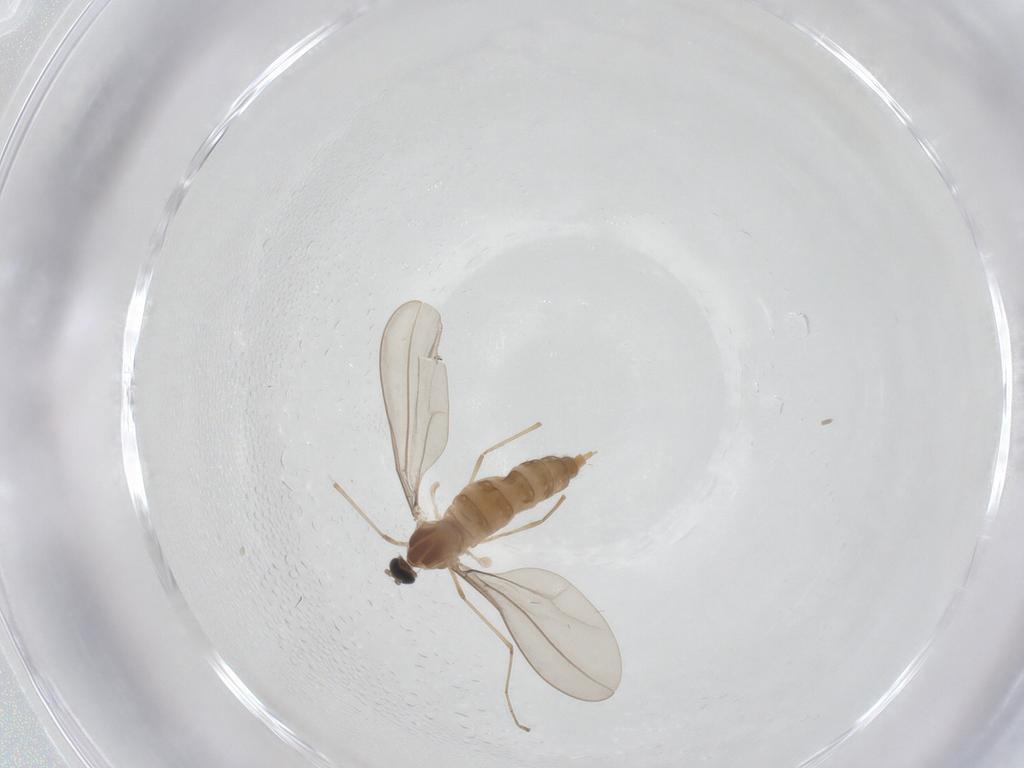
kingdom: Animalia
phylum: Arthropoda
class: Insecta
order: Diptera
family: Cecidomyiidae
